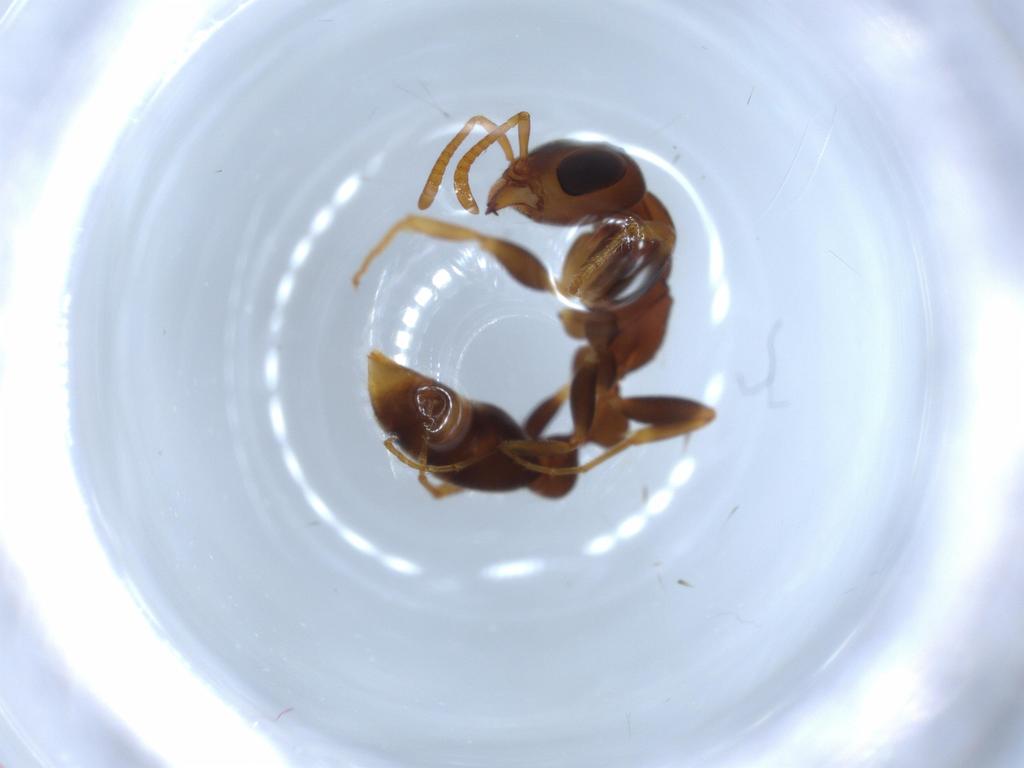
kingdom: Animalia
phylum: Arthropoda
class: Insecta
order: Hymenoptera
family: Formicidae
